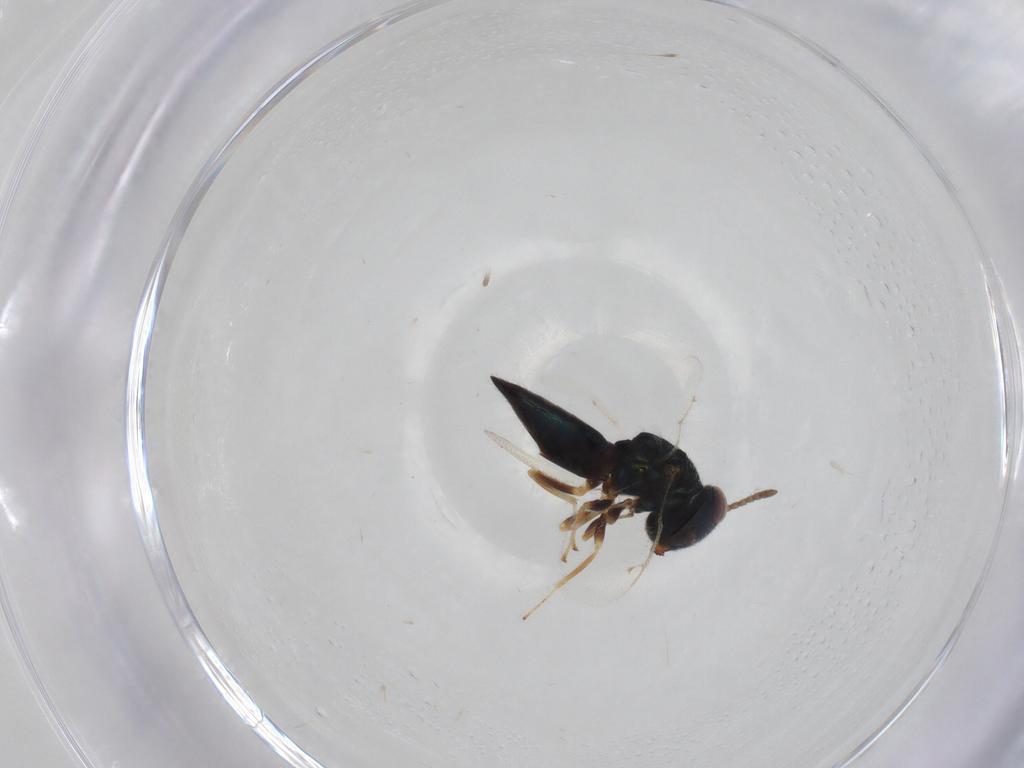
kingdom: Animalia
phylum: Arthropoda
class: Insecta
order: Hymenoptera
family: Pteromalidae
